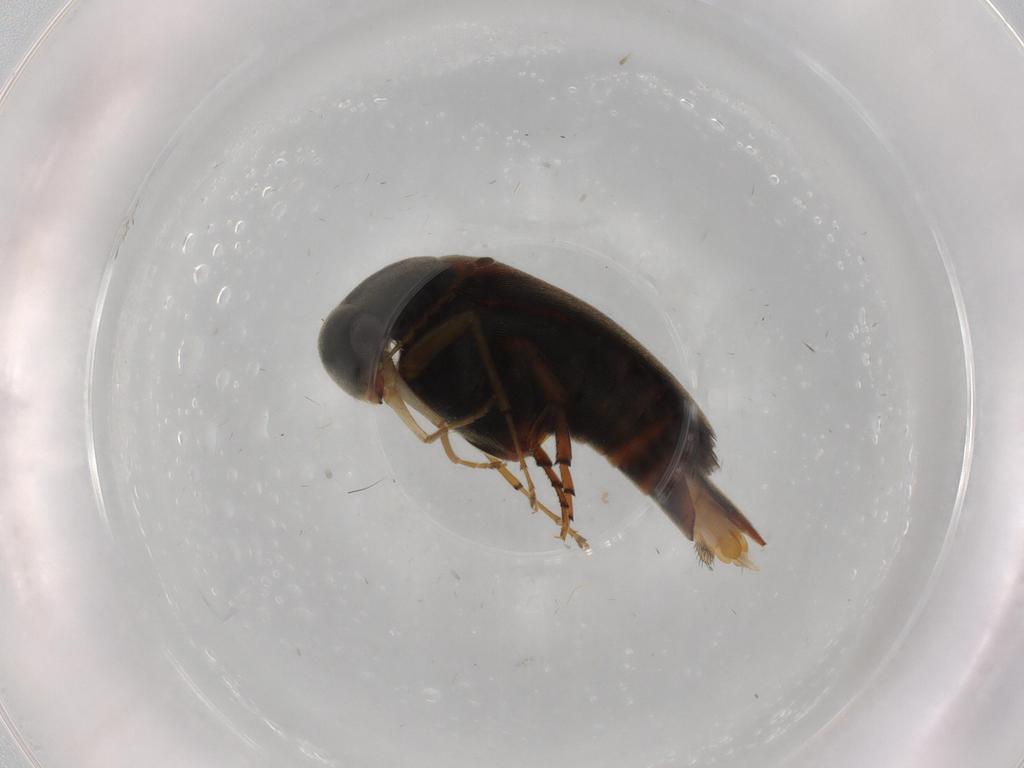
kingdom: Animalia
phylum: Arthropoda
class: Insecta
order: Coleoptera
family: Mordellidae
